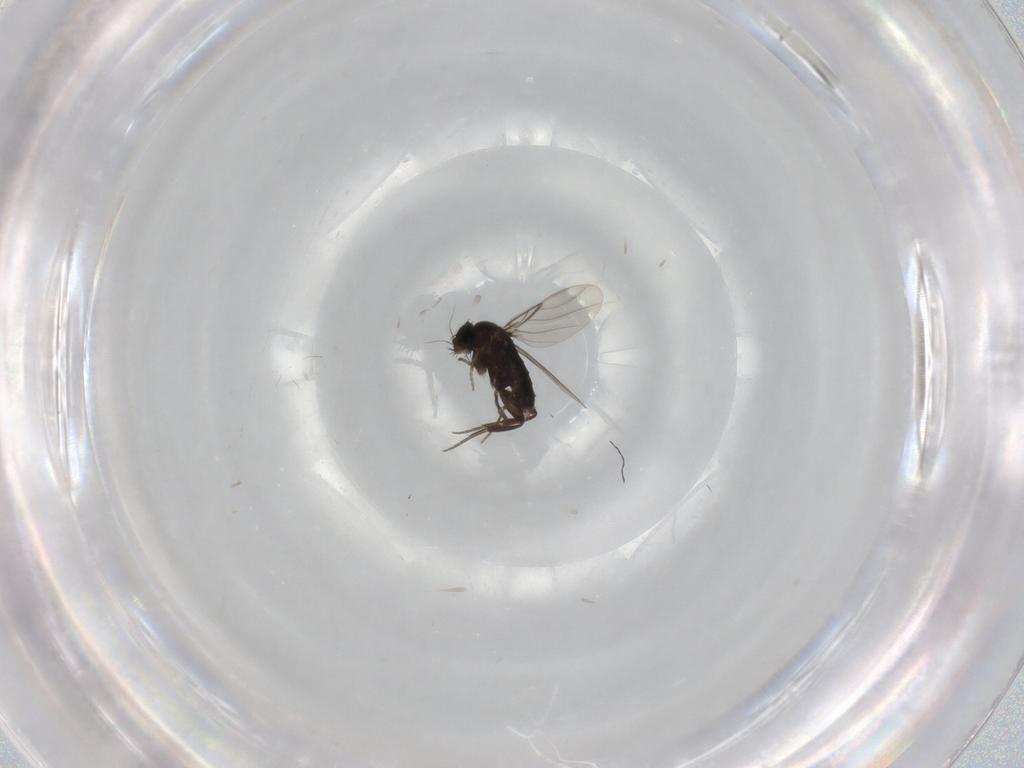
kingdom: Animalia
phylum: Arthropoda
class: Insecta
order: Diptera
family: Phoridae
